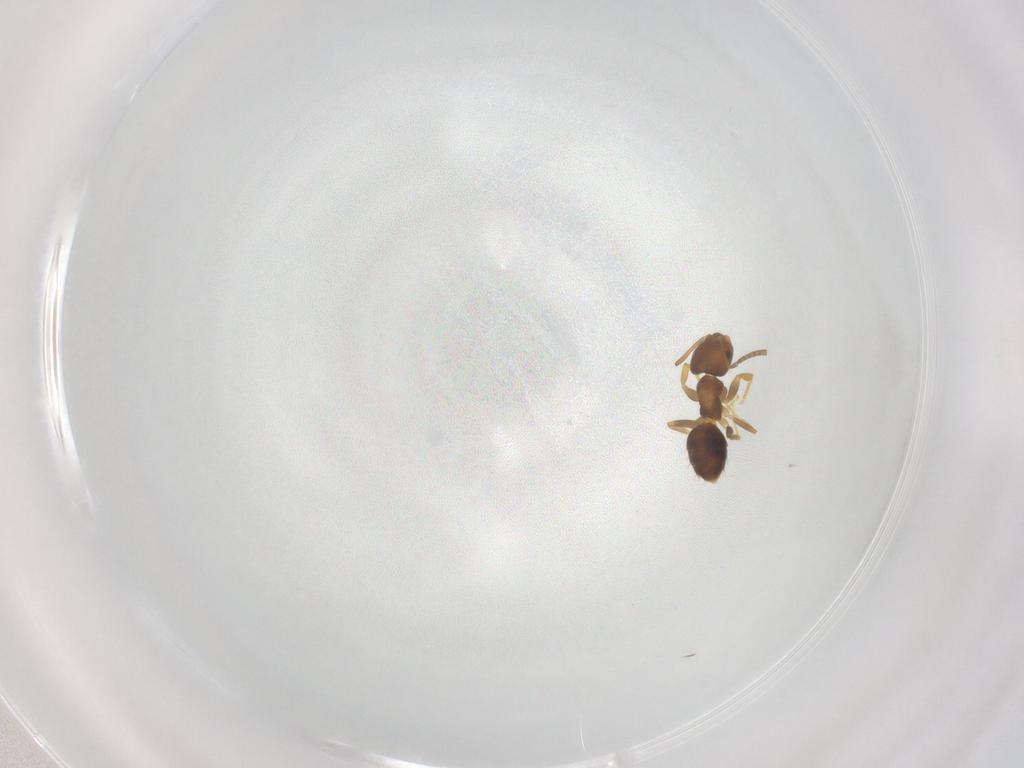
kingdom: Animalia
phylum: Arthropoda
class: Insecta
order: Hymenoptera
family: Formicidae
